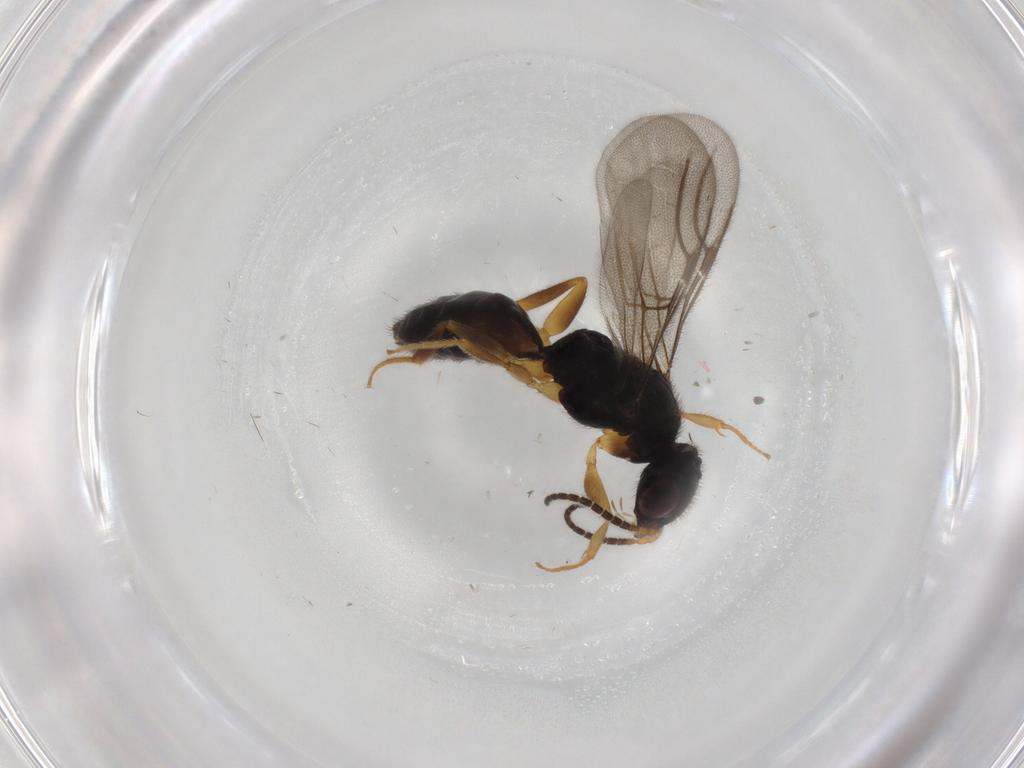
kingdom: Animalia
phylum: Arthropoda
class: Insecta
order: Hymenoptera
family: Bethylidae
